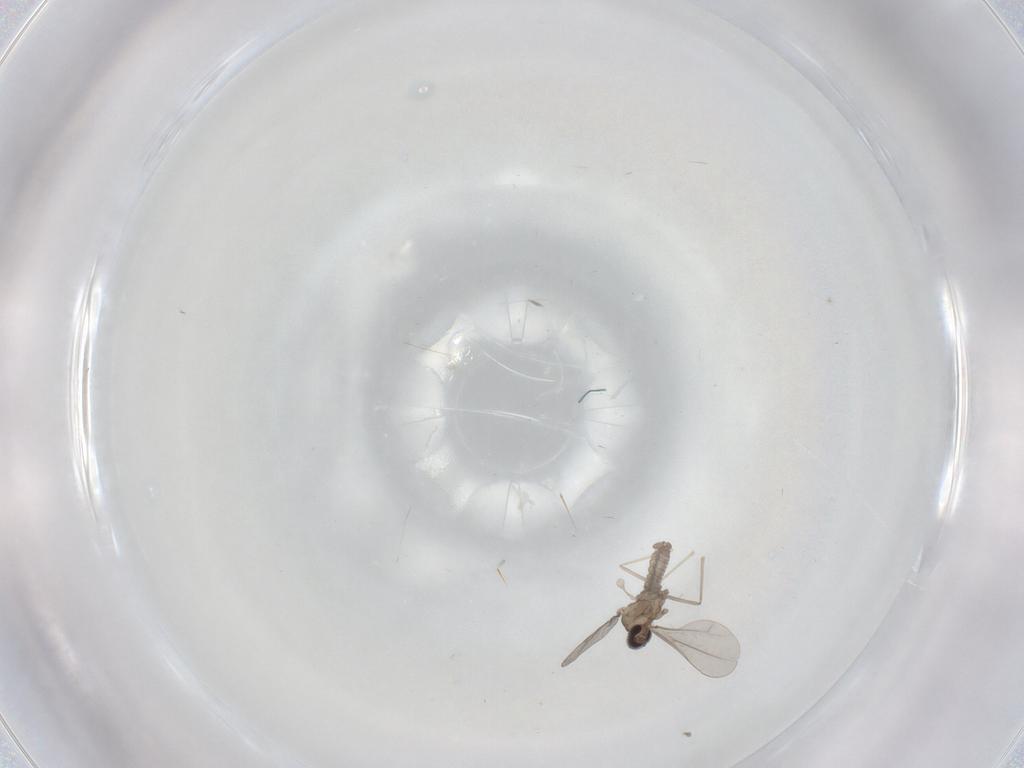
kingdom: Animalia
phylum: Arthropoda
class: Insecta
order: Diptera
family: Cecidomyiidae
